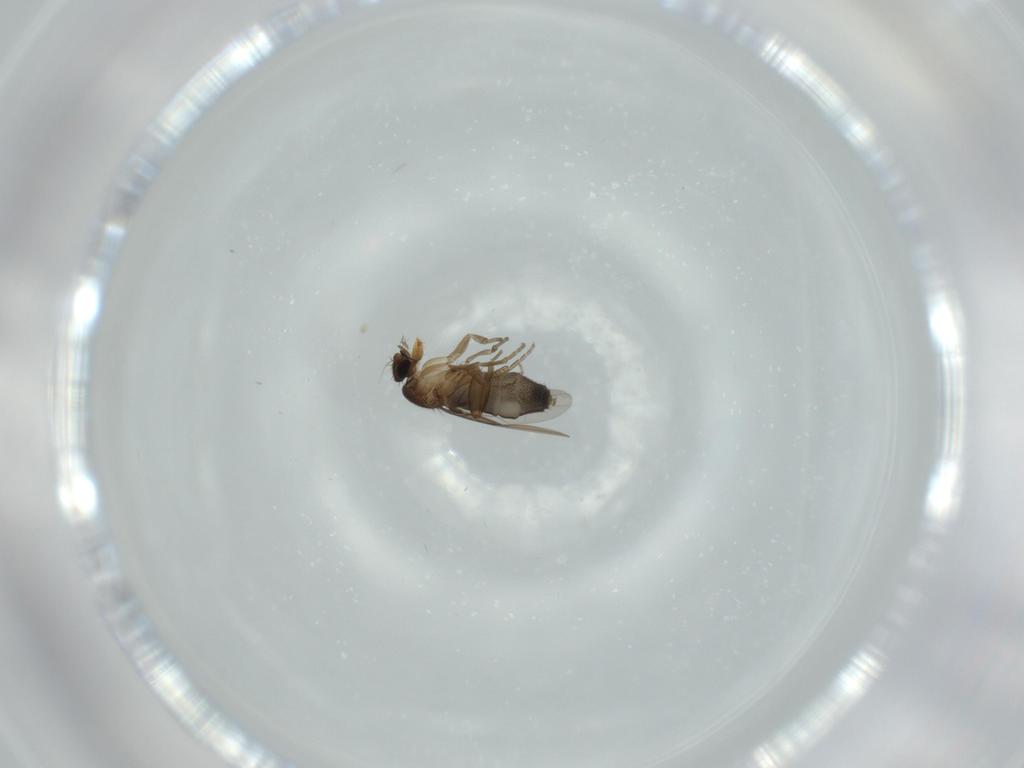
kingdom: Animalia
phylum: Arthropoda
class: Insecta
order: Diptera
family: Phoridae
